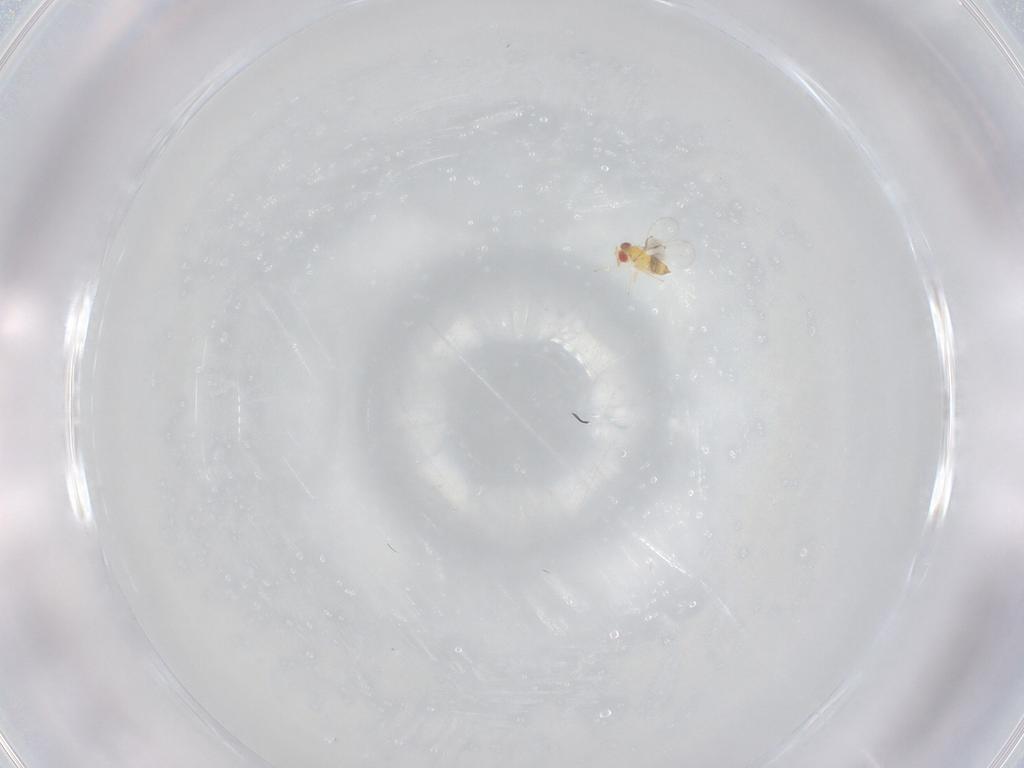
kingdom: Animalia
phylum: Arthropoda
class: Insecta
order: Hymenoptera
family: Trichogrammatidae
